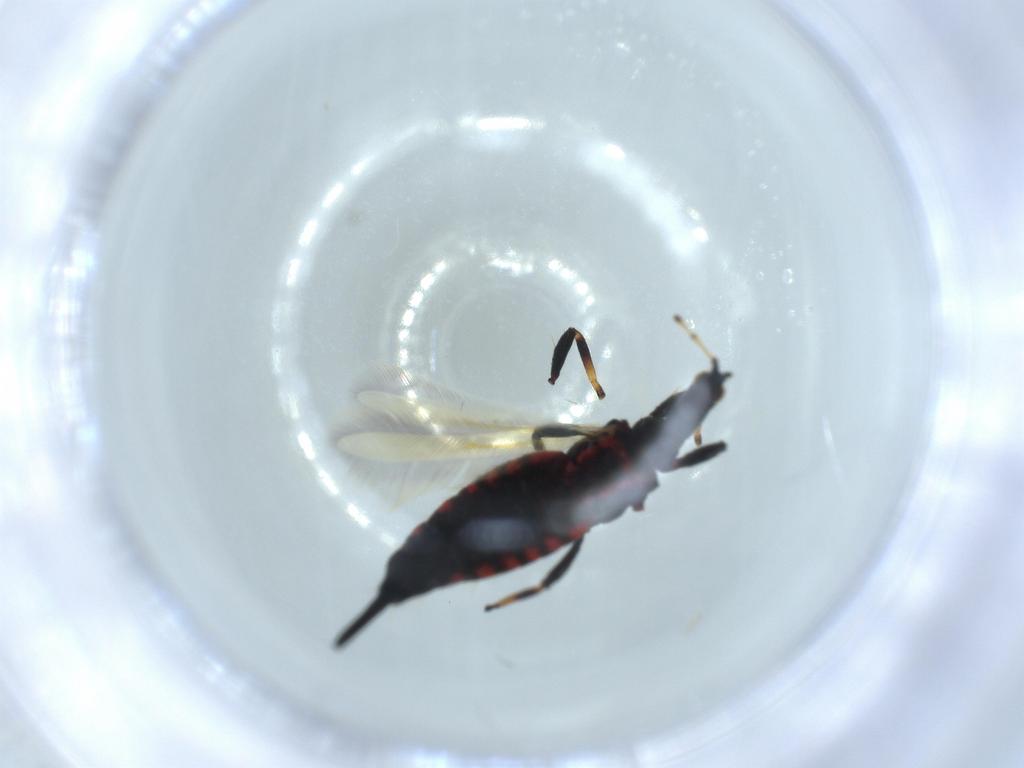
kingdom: Animalia
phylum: Arthropoda
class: Insecta
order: Thysanoptera
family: Phlaeothripidae
